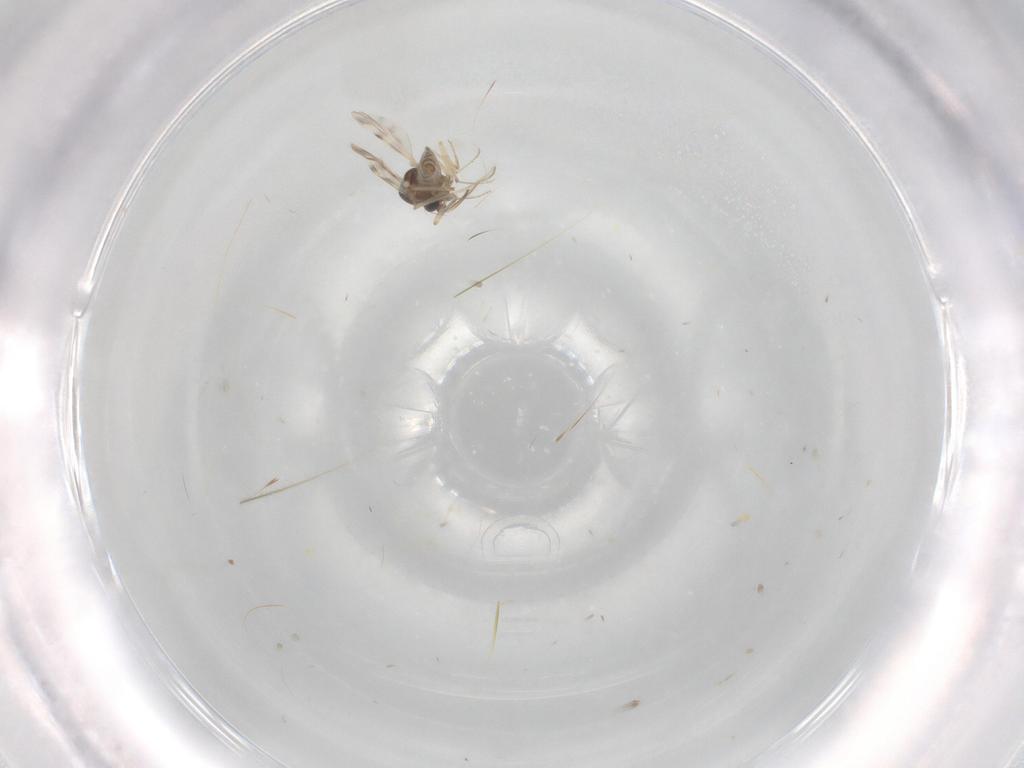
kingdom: Animalia
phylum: Arthropoda
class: Insecta
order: Diptera
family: Ceratopogonidae
